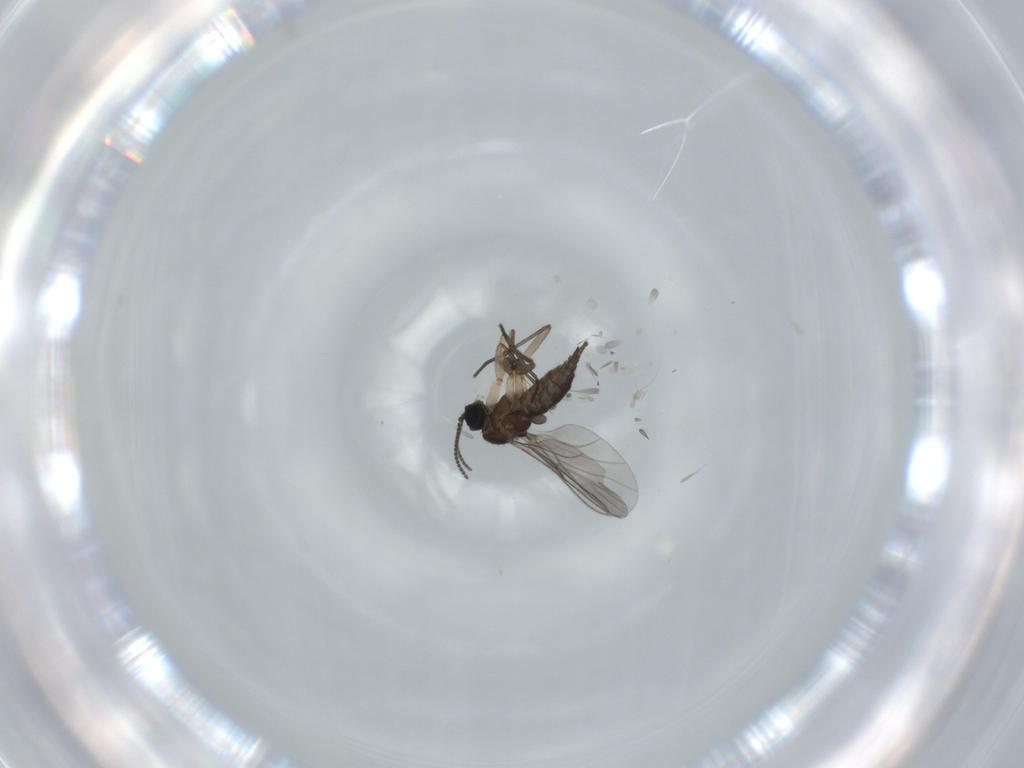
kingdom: Animalia
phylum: Arthropoda
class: Insecta
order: Diptera
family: Sciaridae
